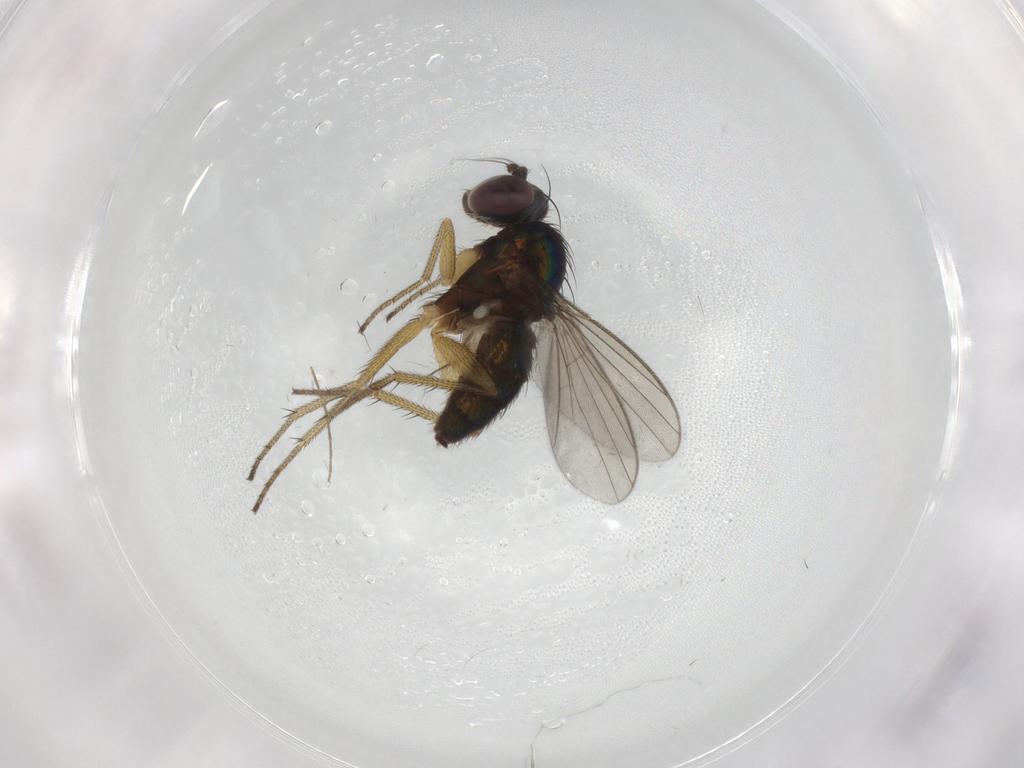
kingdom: Animalia
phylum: Arthropoda
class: Insecta
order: Diptera
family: Chironomidae
